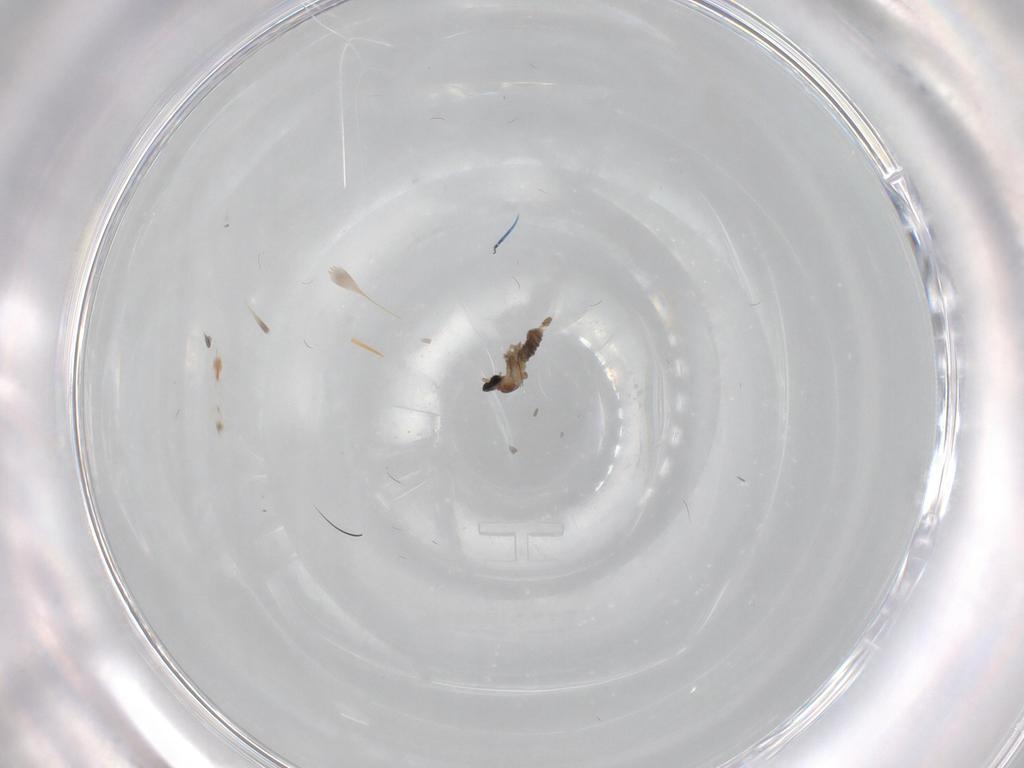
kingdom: Animalia
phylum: Arthropoda
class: Insecta
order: Diptera
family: Cecidomyiidae
